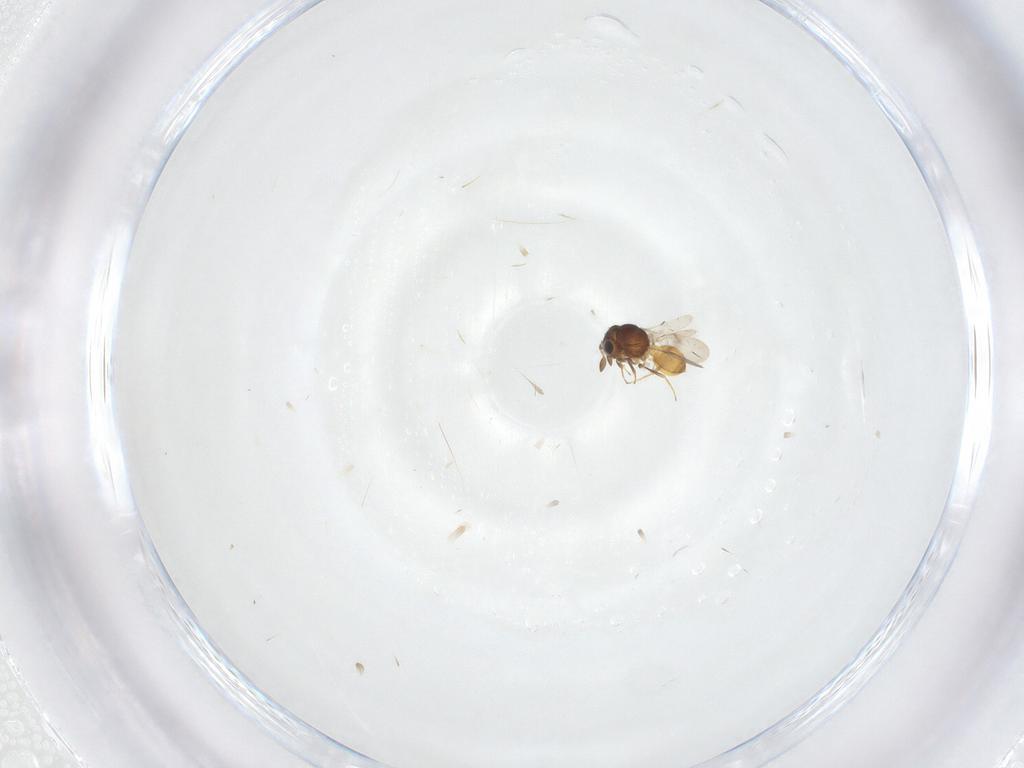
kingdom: Animalia
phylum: Arthropoda
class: Insecta
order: Hymenoptera
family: Scelionidae
